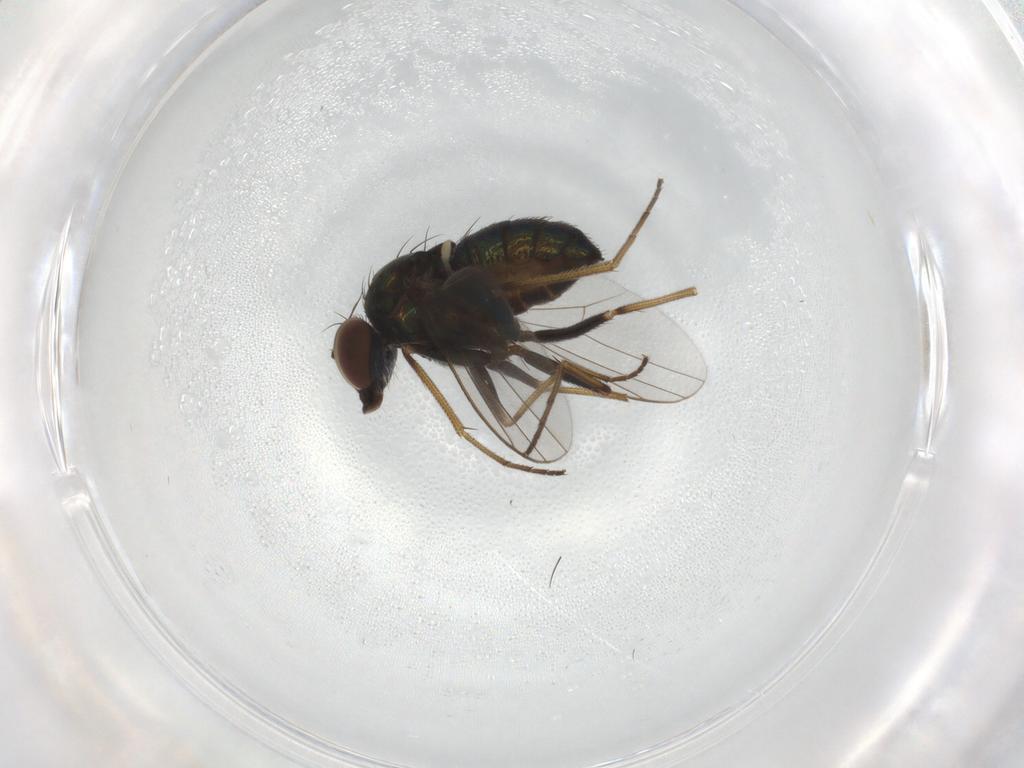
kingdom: Animalia
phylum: Arthropoda
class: Insecta
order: Diptera
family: Dolichopodidae
